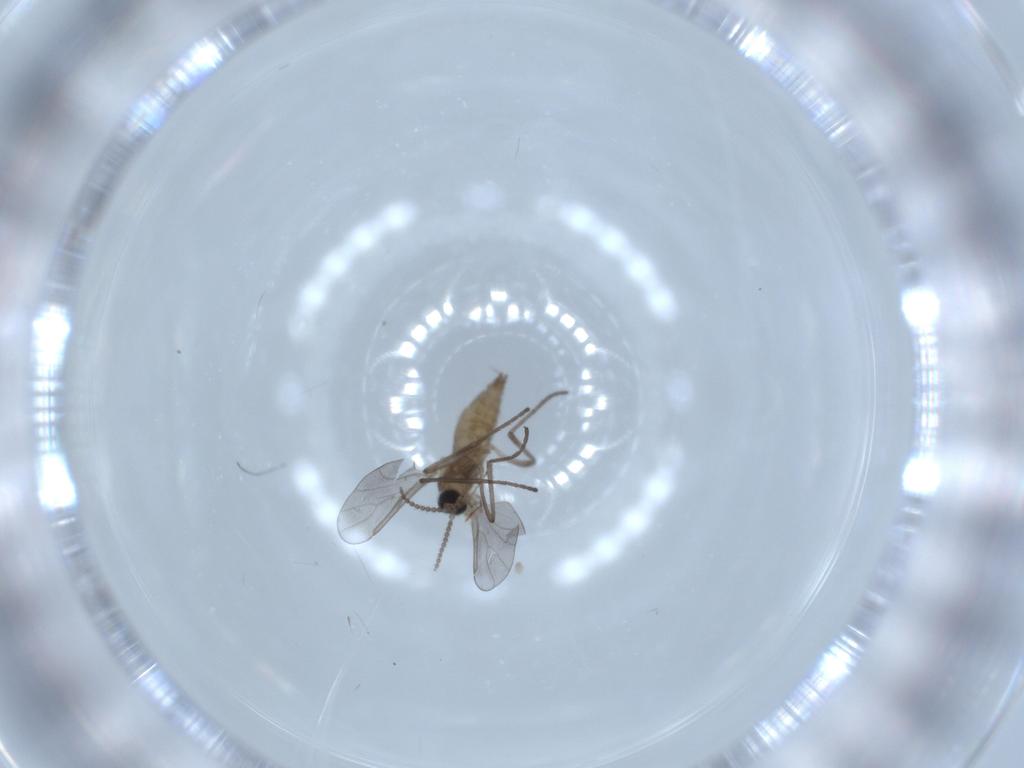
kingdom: Animalia
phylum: Arthropoda
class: Insecta
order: Diptera
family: Cecidomyiidae
